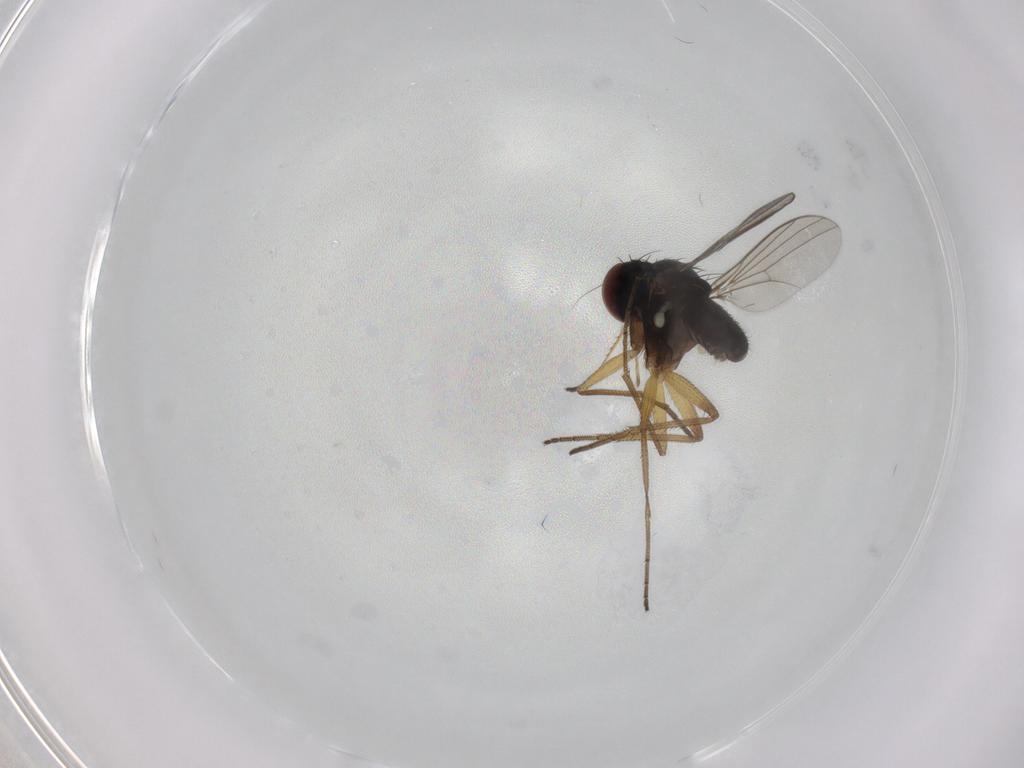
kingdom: Animalia
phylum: Arthropoda
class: Insecta
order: Diptera
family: Dolichopodidae
